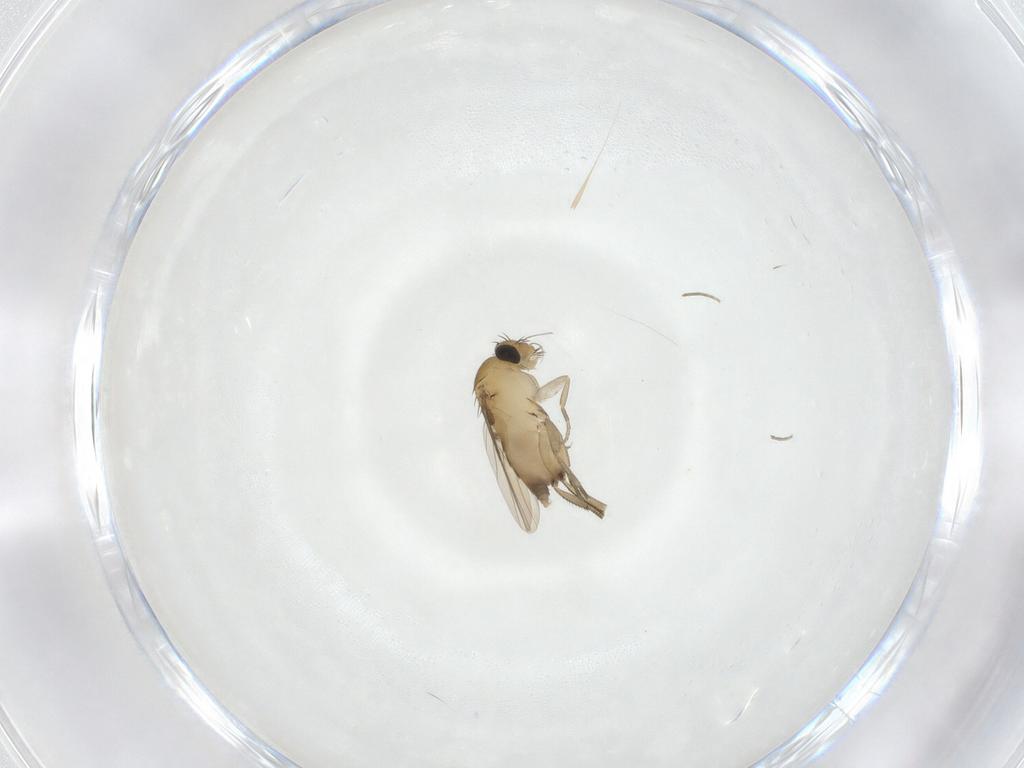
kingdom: Animalia
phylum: Arthropoda
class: Insecta
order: Diptera
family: Phoridae
